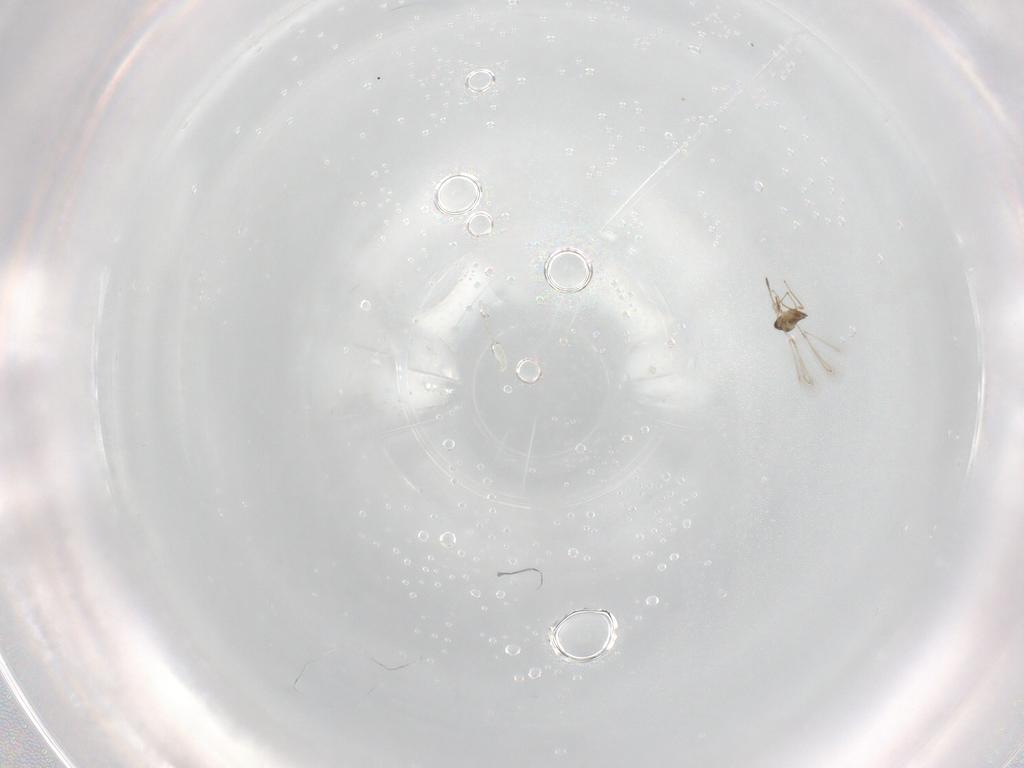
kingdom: Animalia
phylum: Arthropoda
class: Insecta
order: Hymenoptera
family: Mymaridae
